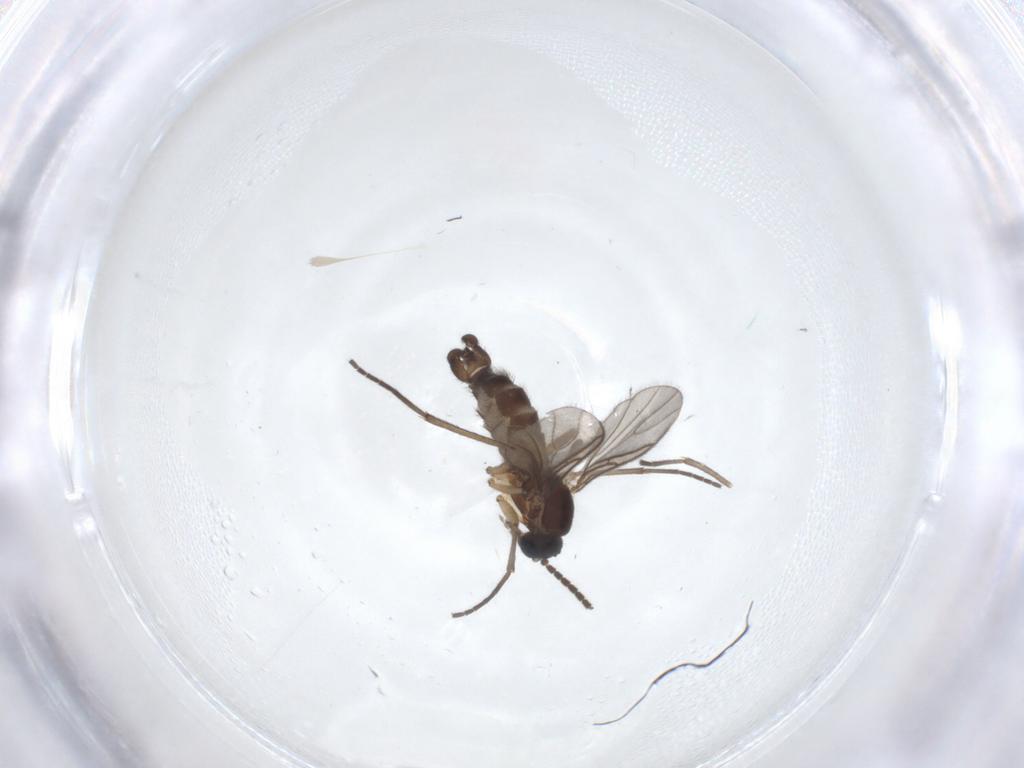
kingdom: Animalia
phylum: Arthropoda
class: Insecta
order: Diptera
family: Sciaridae
